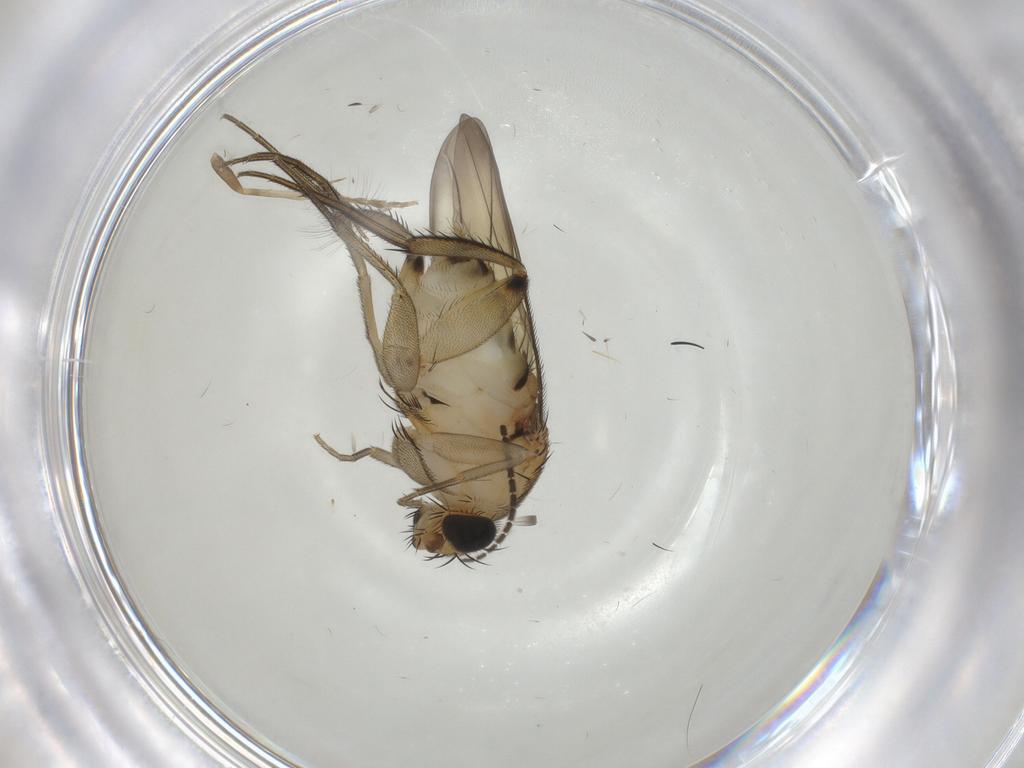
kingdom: Animalia
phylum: Arthropoda
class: Insecta
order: Diptera
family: Phoridae
